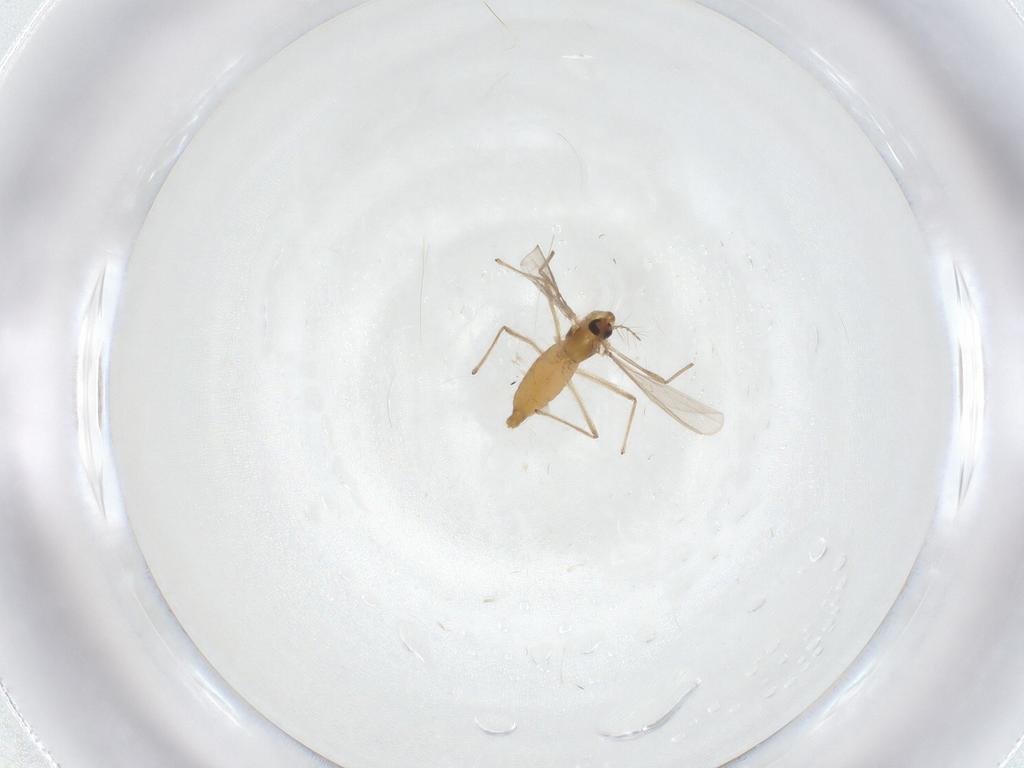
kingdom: Animalia
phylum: Arthropoda
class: Insecta
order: Diptera
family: Chironomidae
